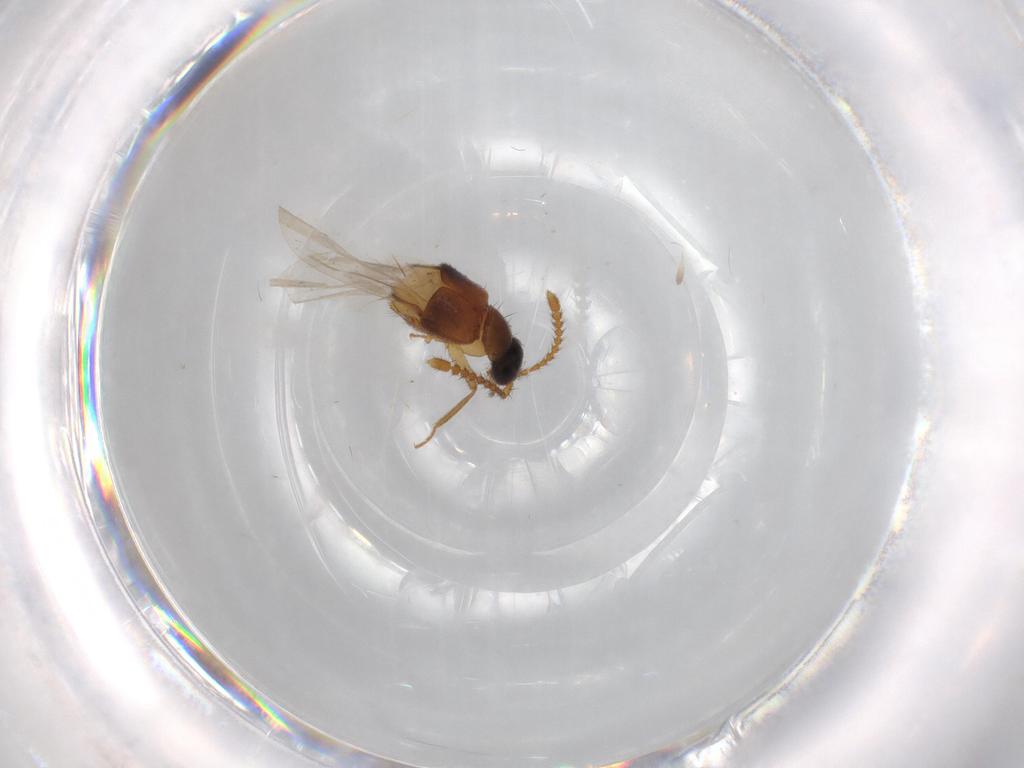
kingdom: Animalia
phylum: Arthropoda
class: Insecta
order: Coleoptera
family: Staphylinidae
